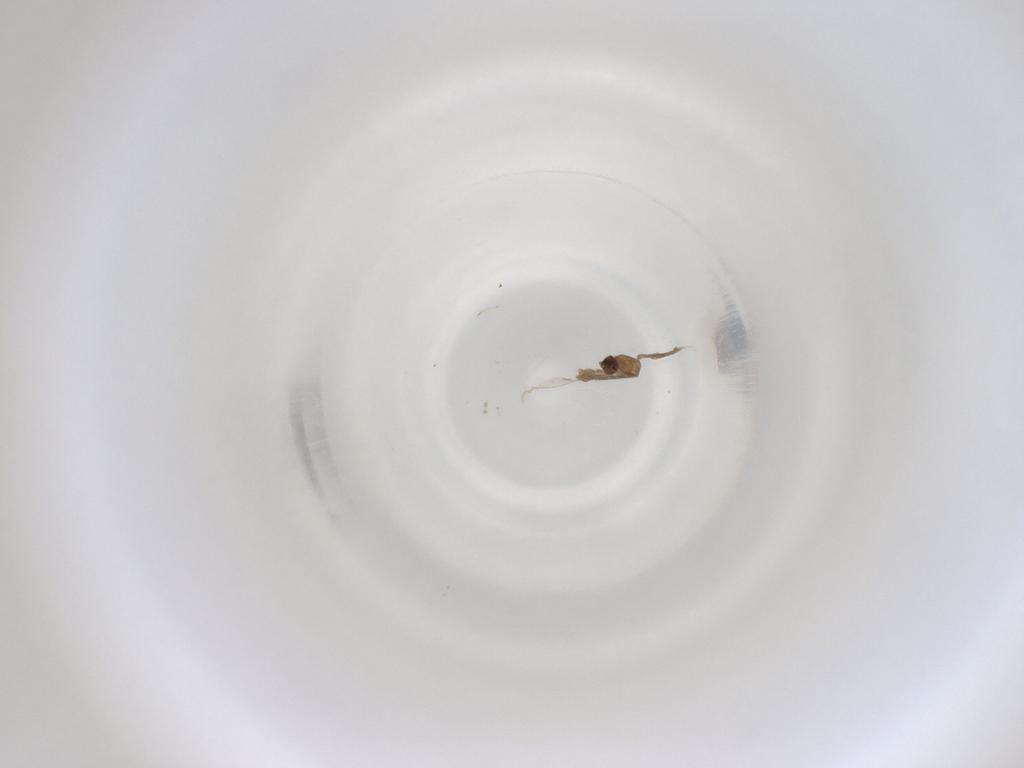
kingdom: Animalia
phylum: Arthropoda
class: Insecta
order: Diptera
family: Cecidomyiidae
